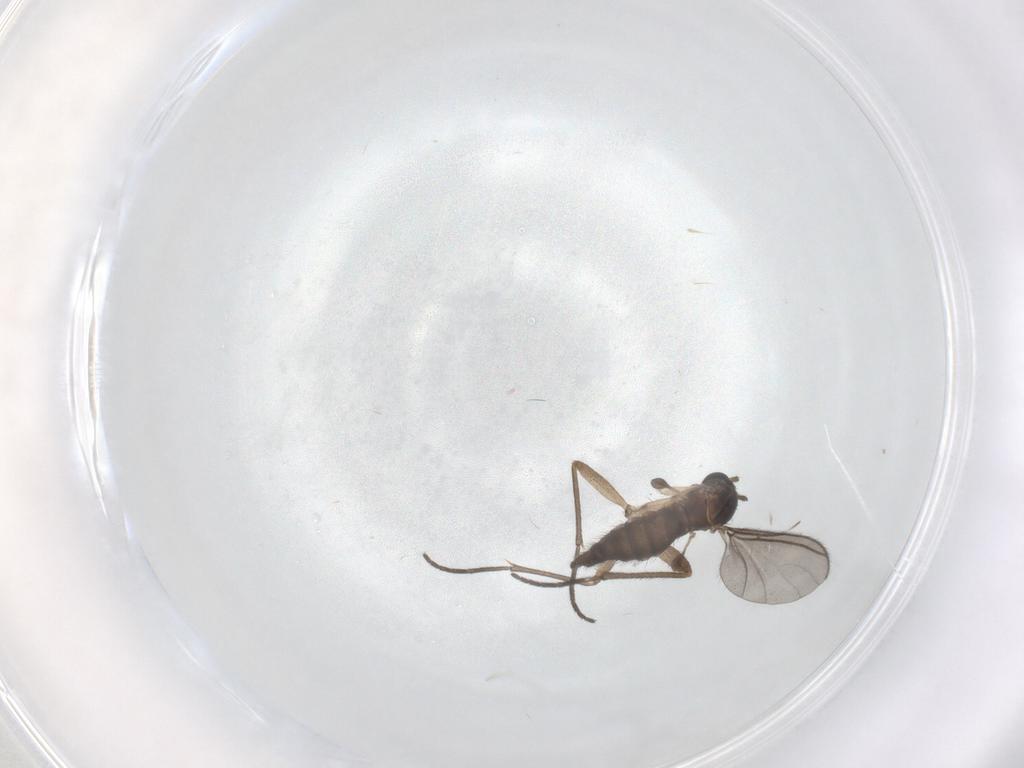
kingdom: Animalia
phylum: Arthropoda
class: Insecta
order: Diptera
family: Sciaridae
